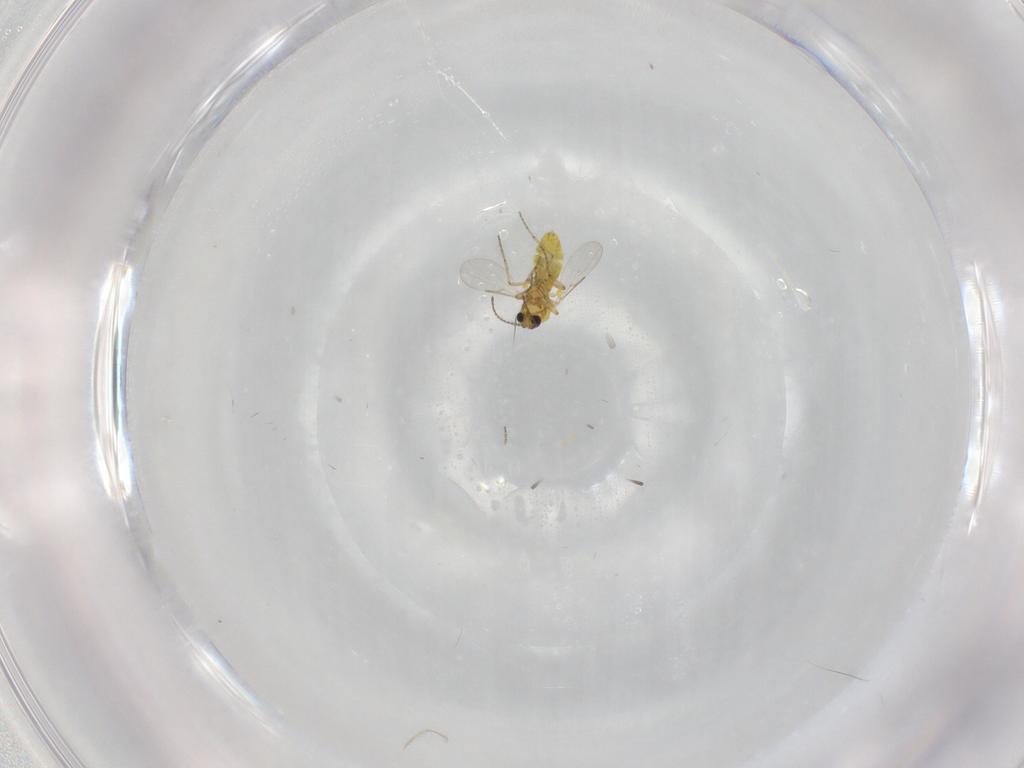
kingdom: Animalia
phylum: Arthropoda
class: Insecta
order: Diptera
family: Ceratopogonidae
